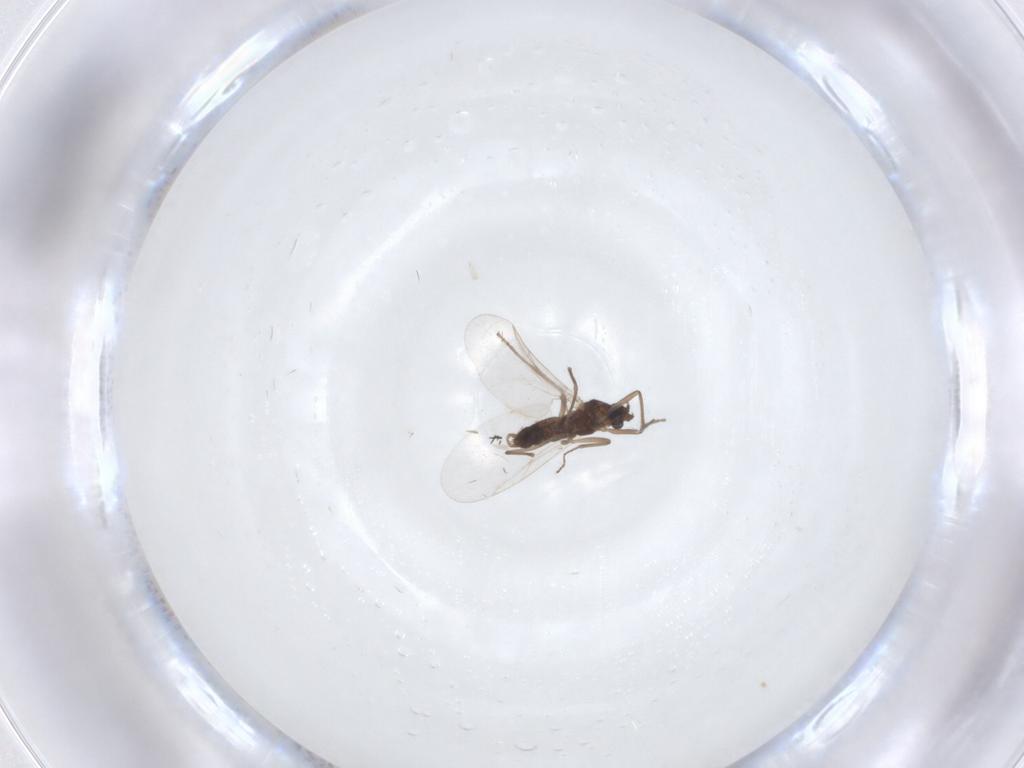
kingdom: Animalia
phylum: Arthropoda
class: Insecta
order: Diptera
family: Cecidomyiidae
